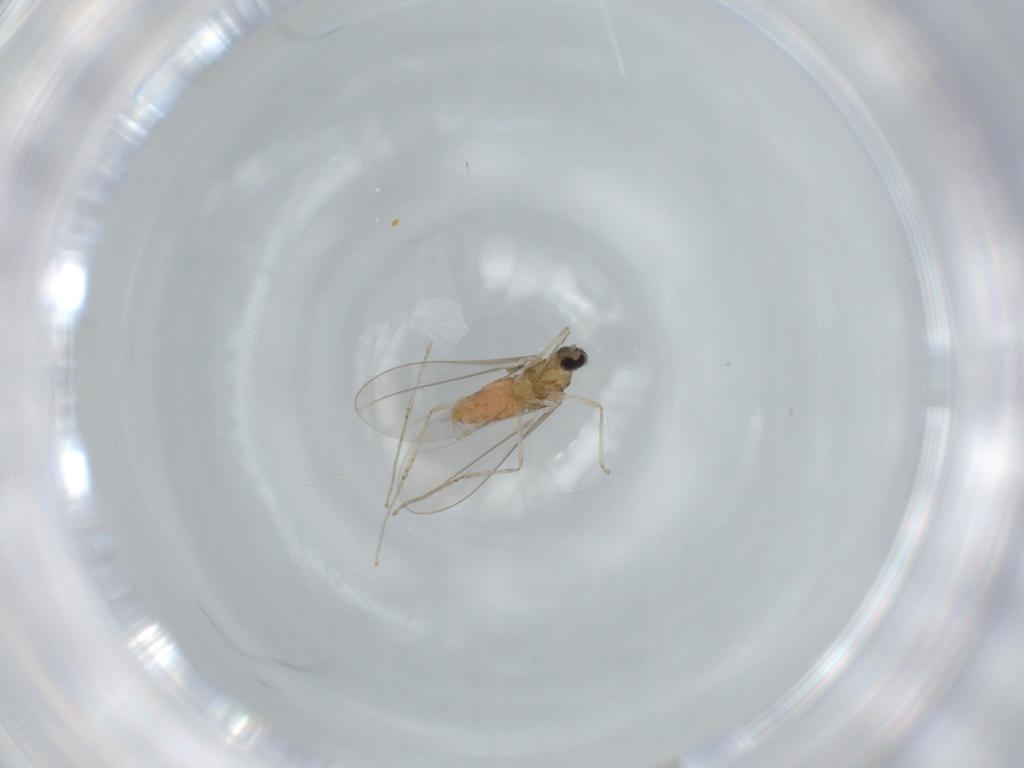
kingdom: Animalia
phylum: Arthropoda
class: Insecta
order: Diptera
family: Cecidomyiidae
